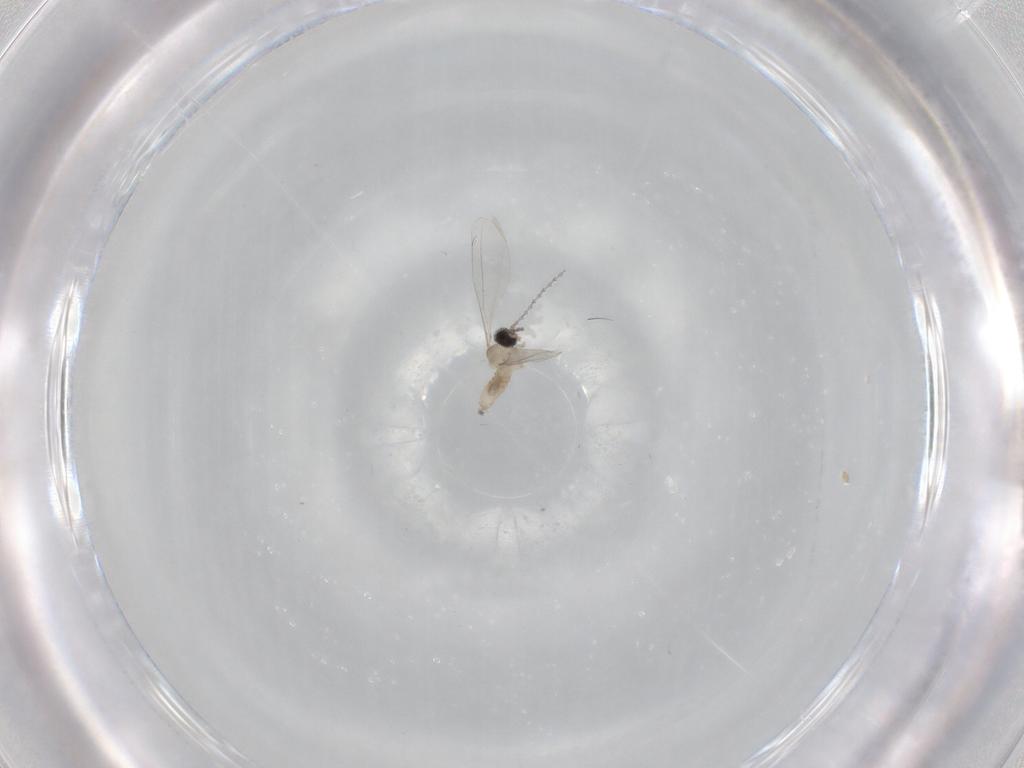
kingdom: Animalia
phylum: Arthropoda
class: Insecta
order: Diptera
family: Cecidomyiidae
